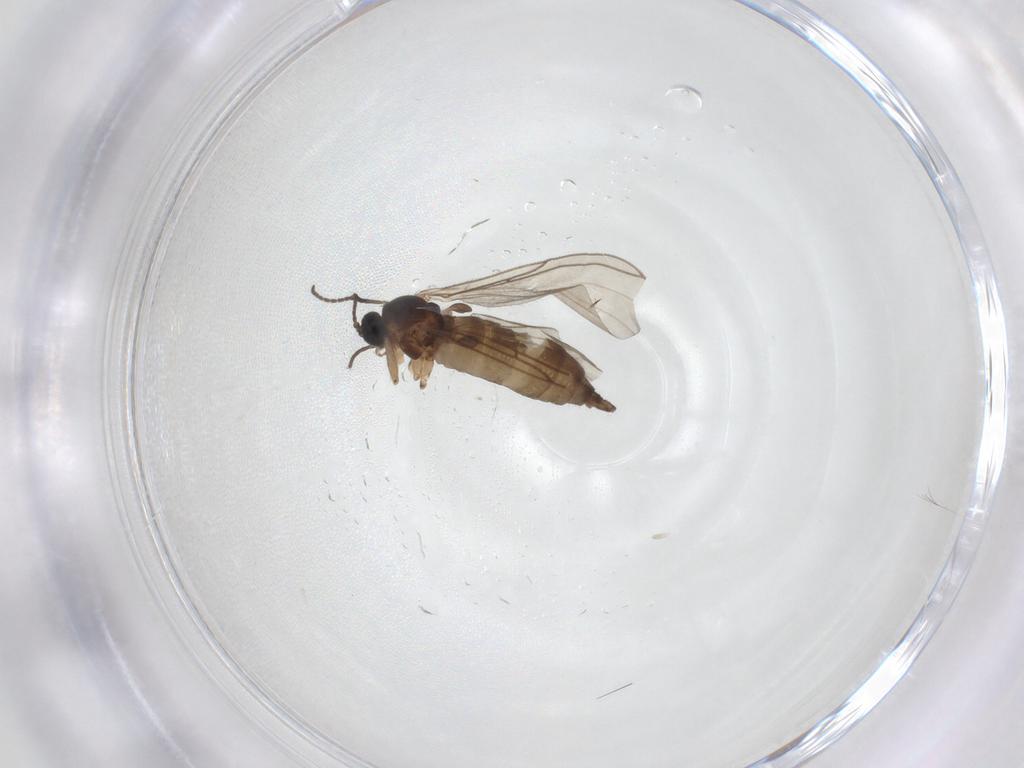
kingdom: Animalia
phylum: Arthropoda
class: Insecta
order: Diptera
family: Sciaridae
